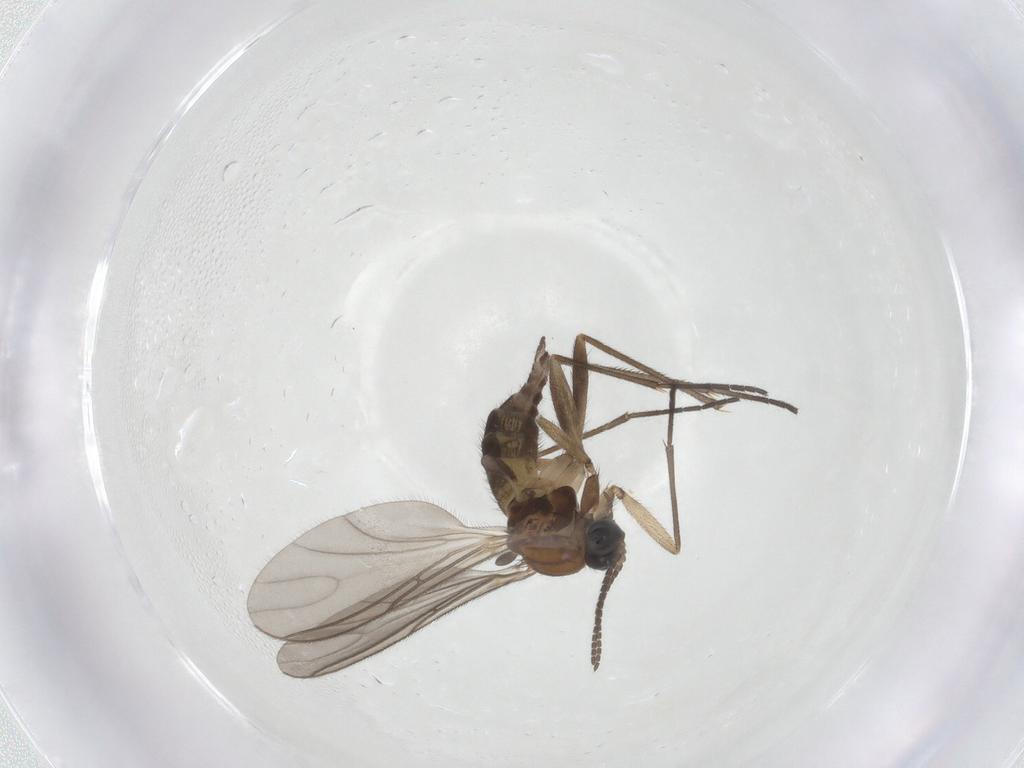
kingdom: Animalia
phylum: Arthropoda
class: Insecta
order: Diptera
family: Sciaridae
